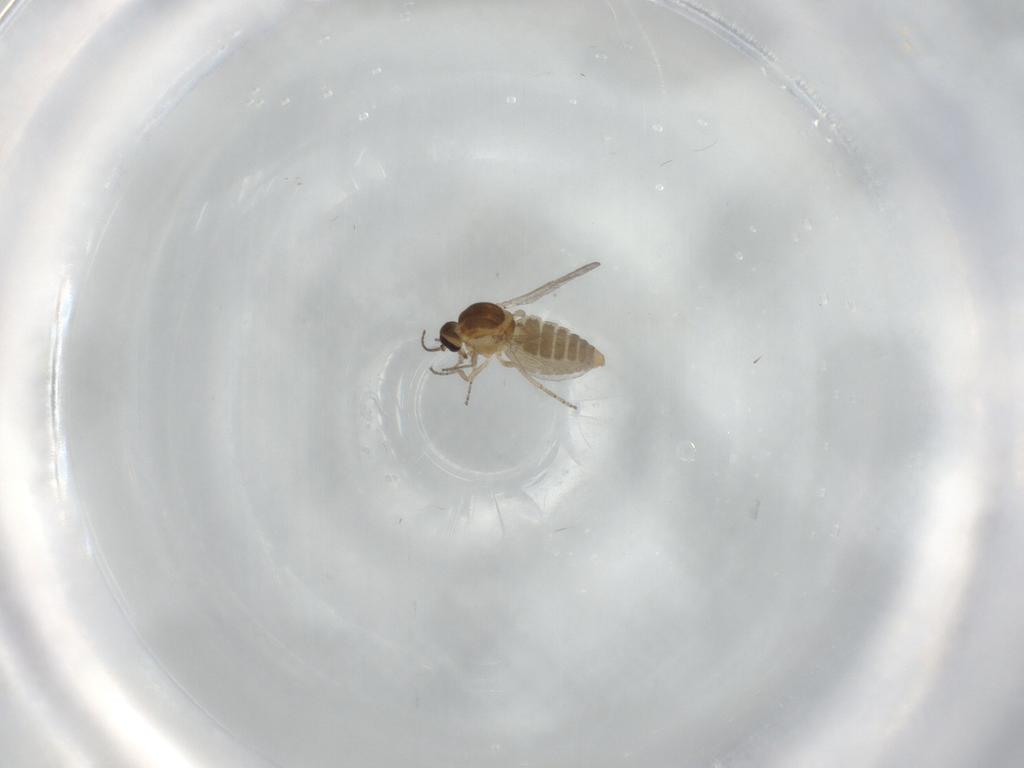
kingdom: Animalia
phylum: Arthropoda
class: Insecta
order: Diptera
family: Ceratopogonidae
